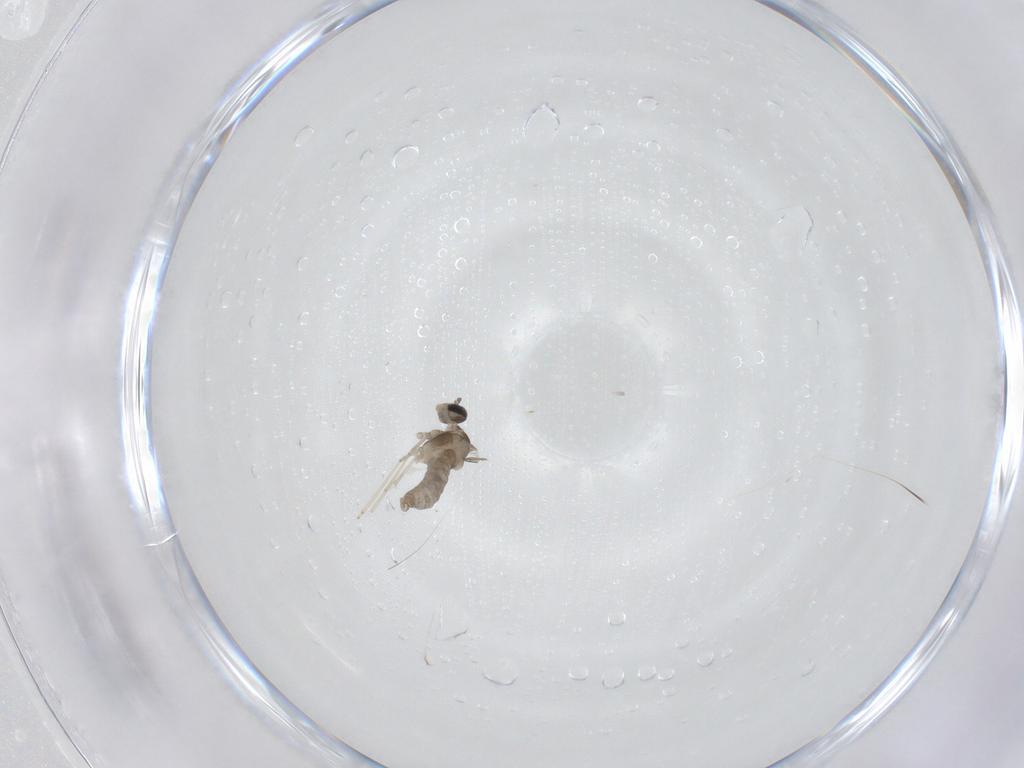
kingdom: Animalia
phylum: Arthropoda
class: Insecta
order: Diptera
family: Cecidomyiidae
